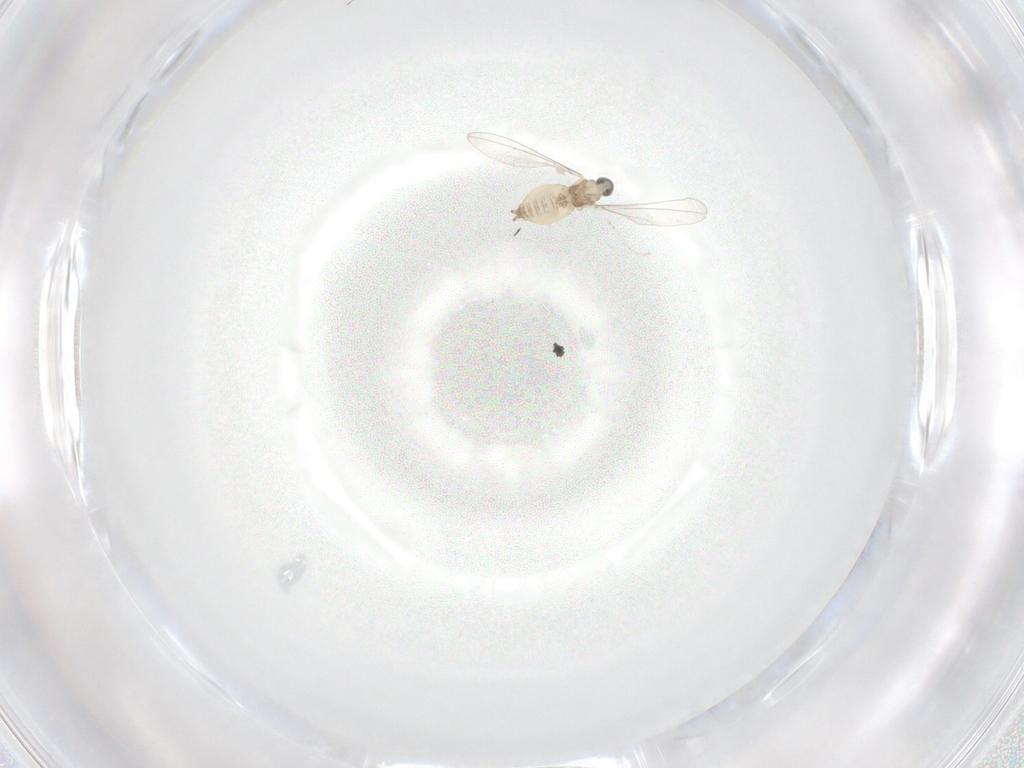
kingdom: Animalia
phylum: Arthropoda
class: Insecta
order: Diptera
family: Cecidomyiidae
